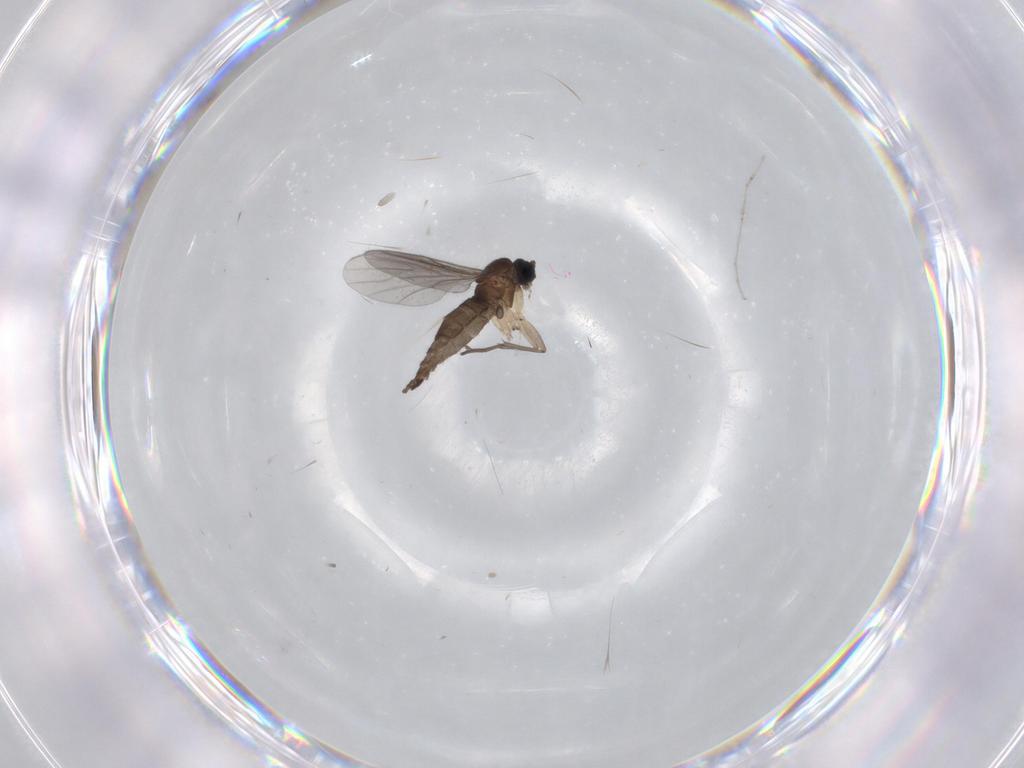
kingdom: Animalia
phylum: Arthropoda
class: Insecta
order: Diptera
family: Sciaridae
